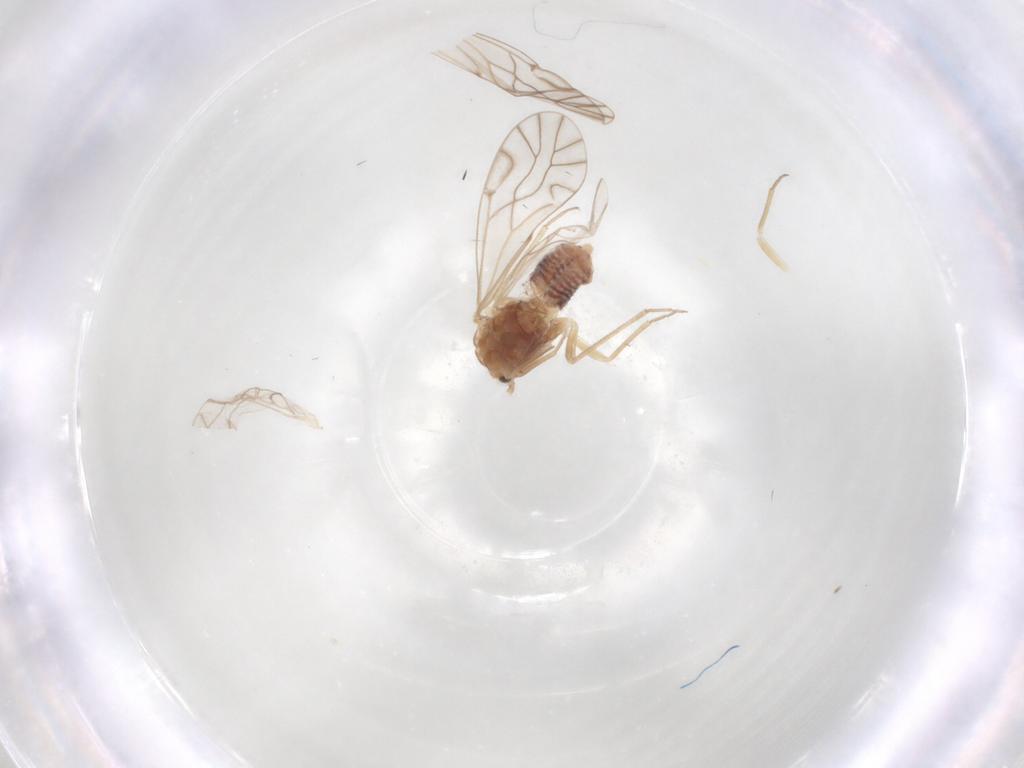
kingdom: Animalia
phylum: Arthropoda
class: Insecta
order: Psocodea
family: Lachesillidae
